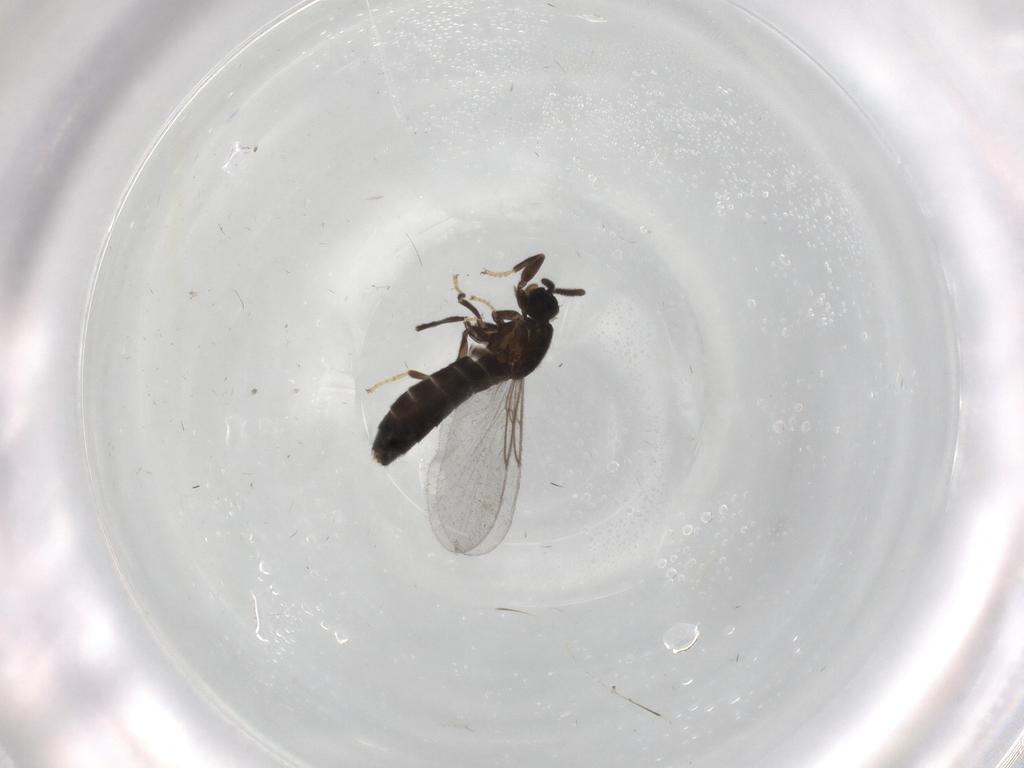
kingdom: Animalia
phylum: Arthropoda
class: Insecta
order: Diptera
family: Scatopsidae
